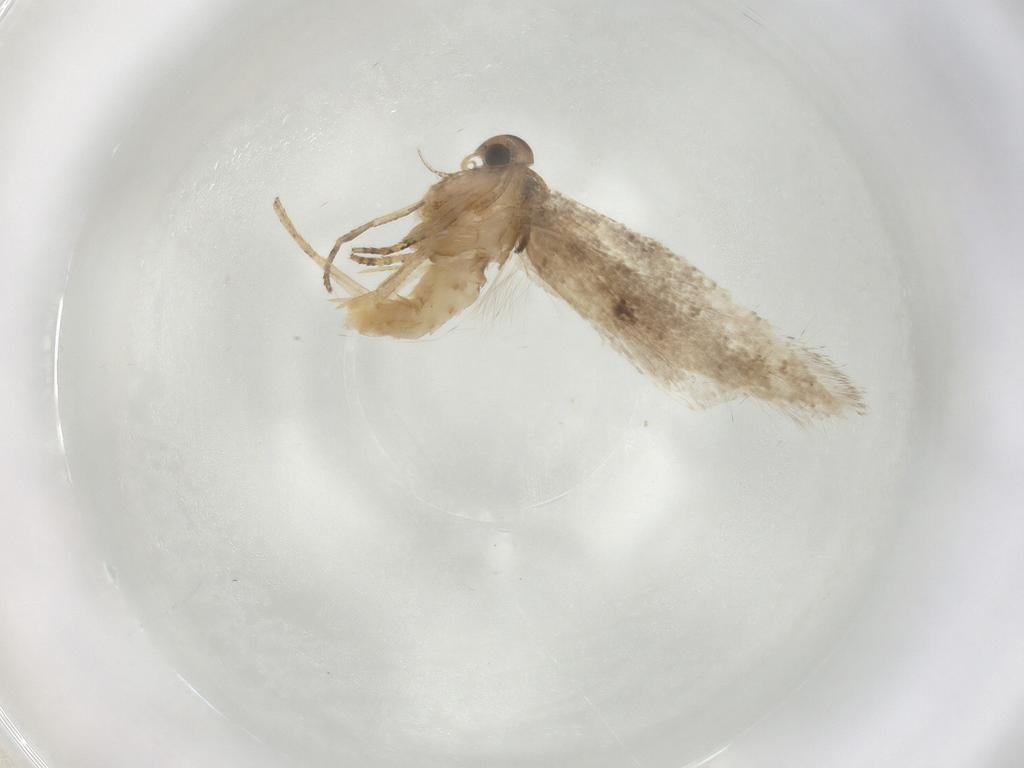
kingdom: Animalia
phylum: Arthropoda
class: Insecta
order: Lepidoptera
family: Gelechiidae
